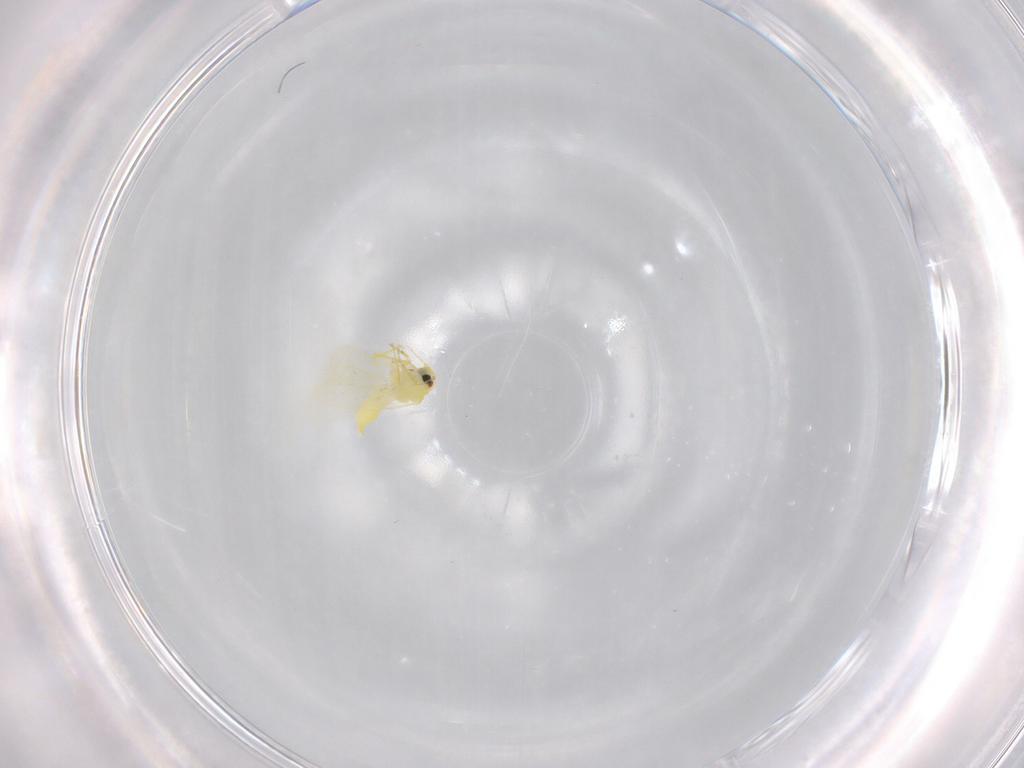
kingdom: Animalia
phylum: Arthropoda
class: Insecta
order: Hemiptera
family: Aleyrodidae
